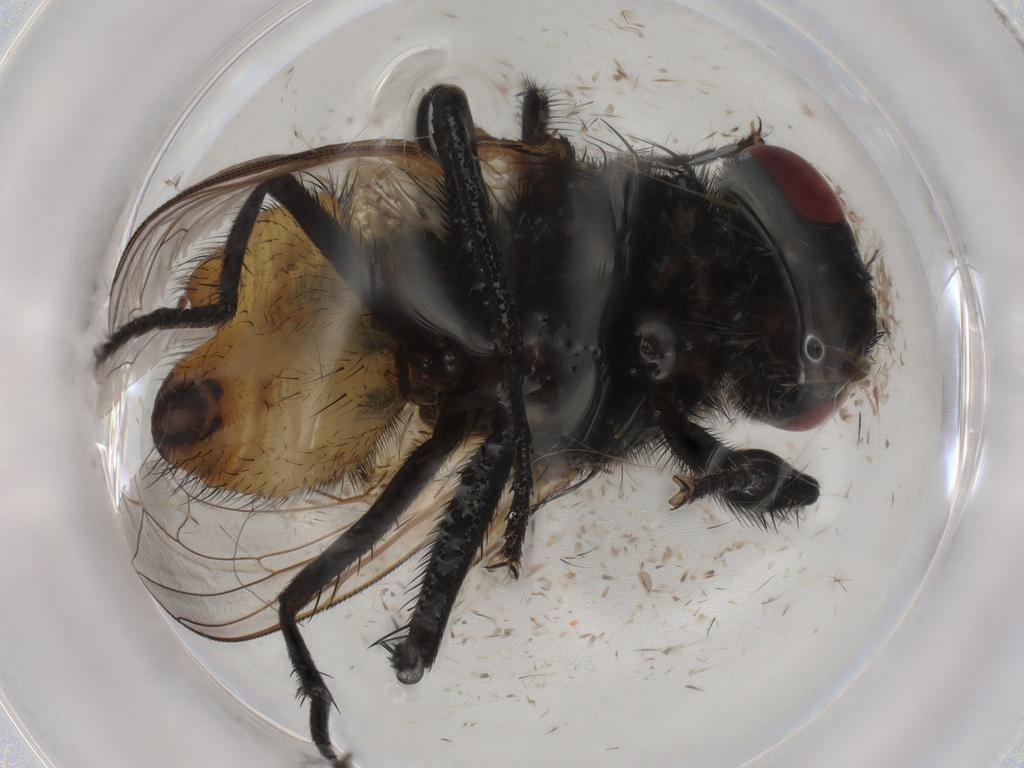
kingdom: Animalia
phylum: Arthropoda
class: Insecta
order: Diptera
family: Muscidae
